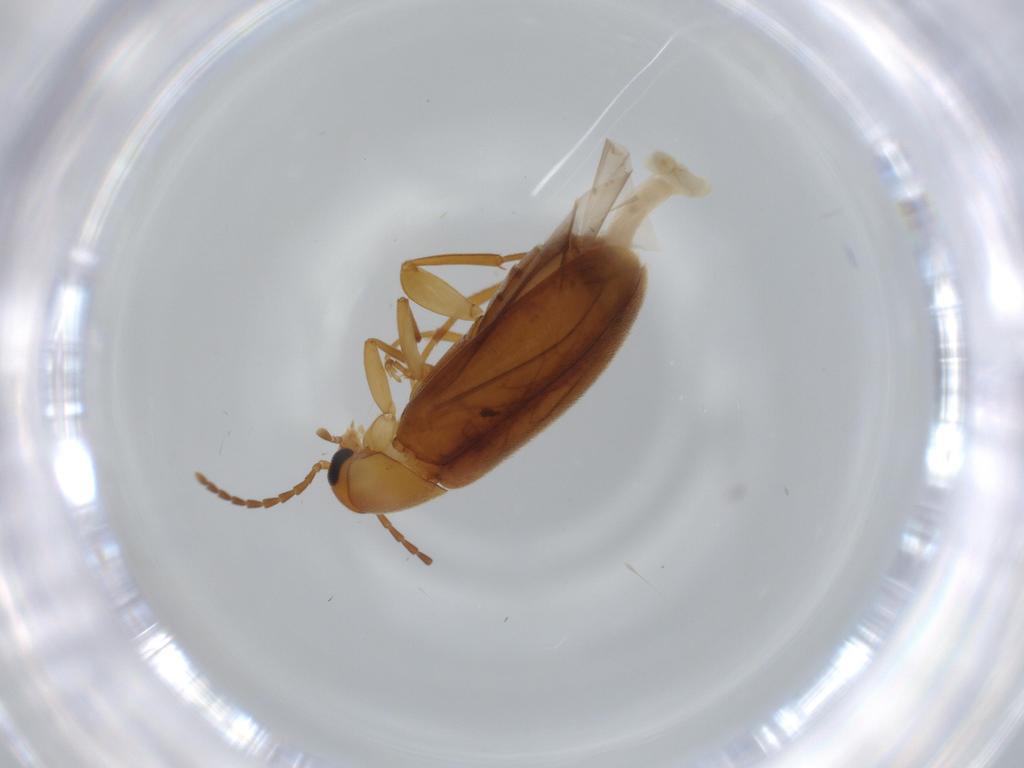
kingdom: Animalia
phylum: Arthropoda
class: Insecta
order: Coleoptera
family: Scraptiidae
